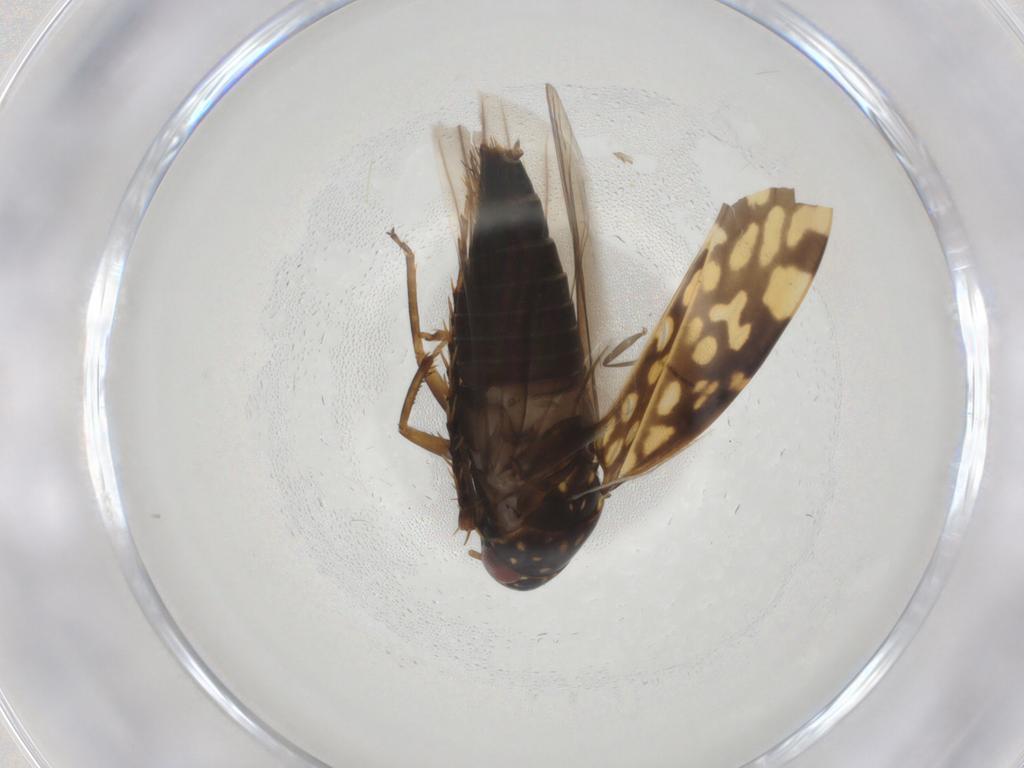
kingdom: Animalia
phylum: Arthropoda
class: Insecta
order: Hemiptera
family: Cicadellidae
